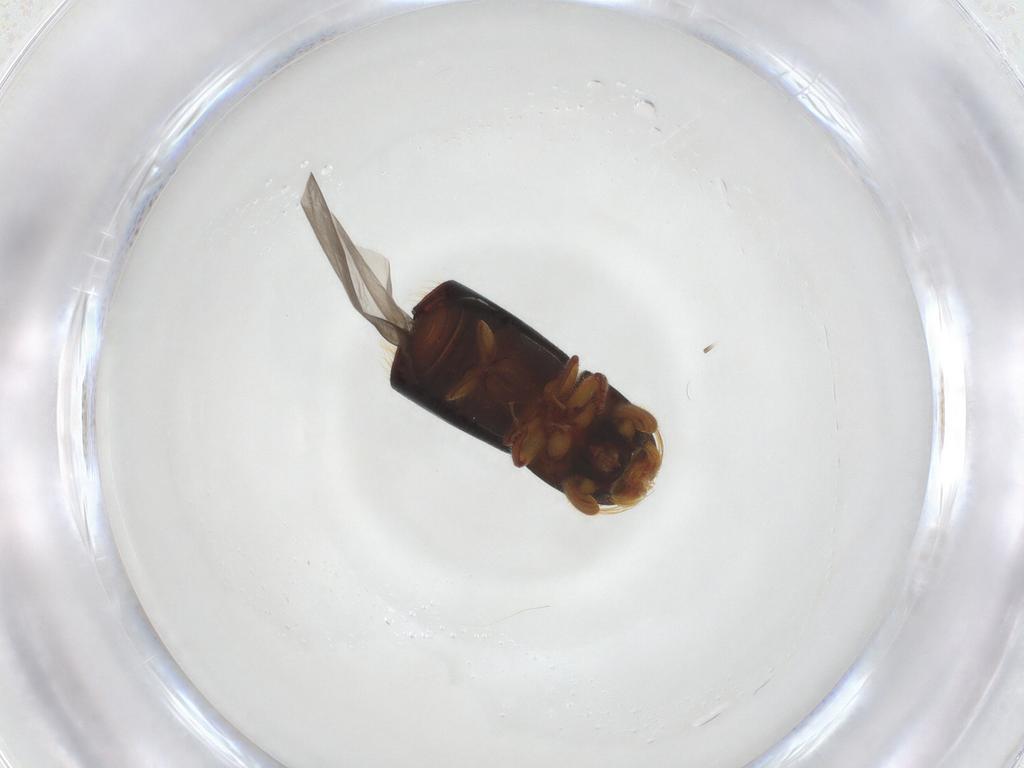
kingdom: Animalia
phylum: Arthropoda
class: Insecta
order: Coleoptera
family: Curculionidae
